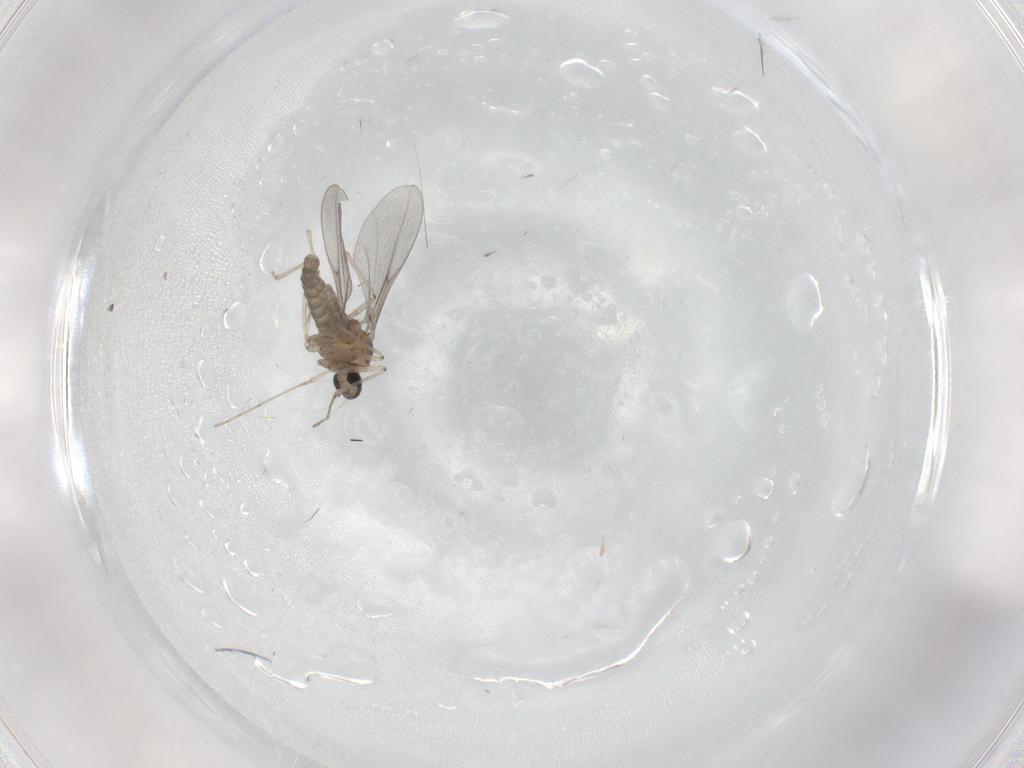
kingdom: Animalia
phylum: Arthropoda
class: Insecta
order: Diptera
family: Cecidomyiidae
